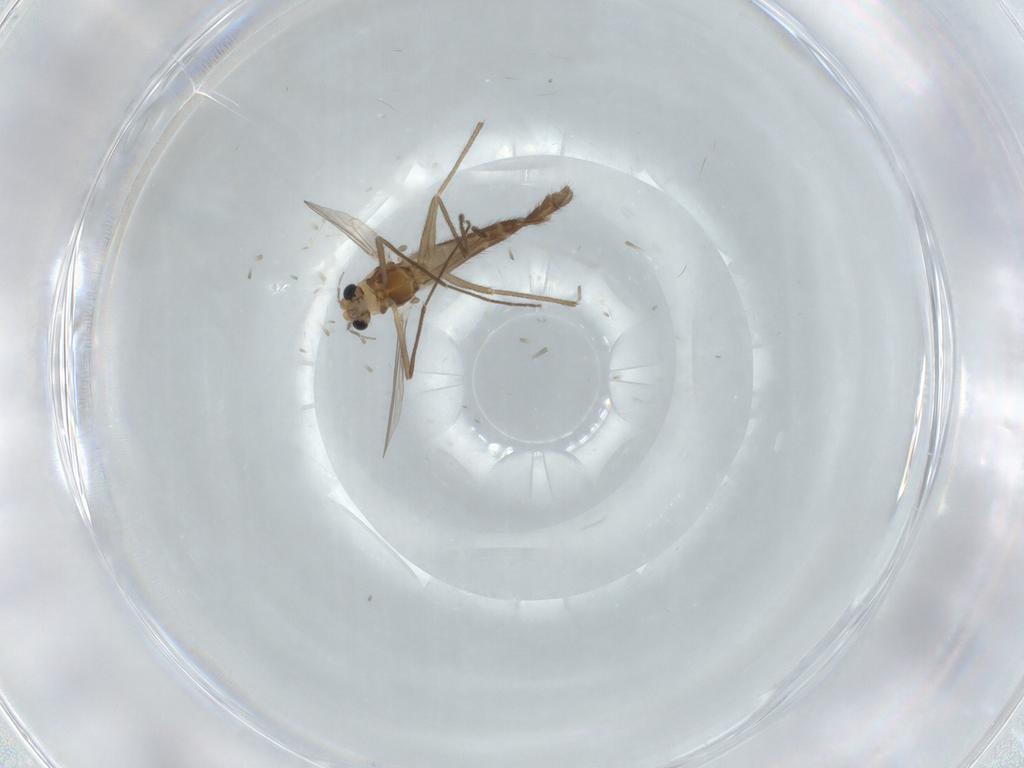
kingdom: Animalia
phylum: Arthropoda
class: Insecta
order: Diptera
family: Chironomidae
